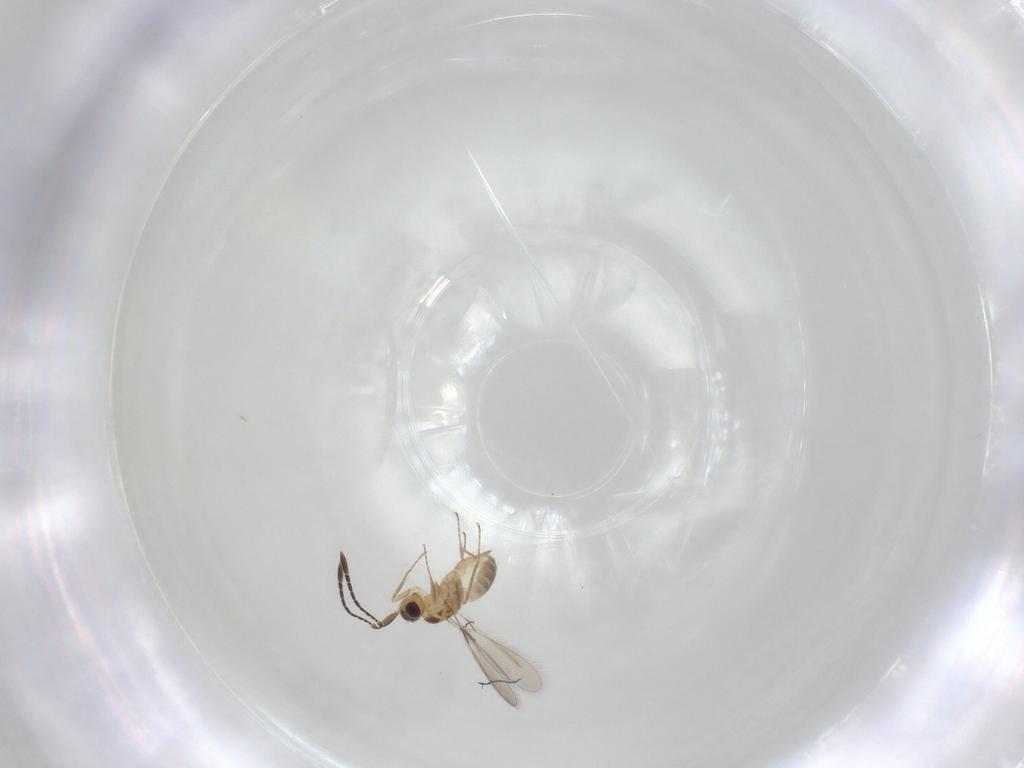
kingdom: Animalia
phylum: Arthropoda
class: Insecta
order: Hymenoptera
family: Mymaridae
